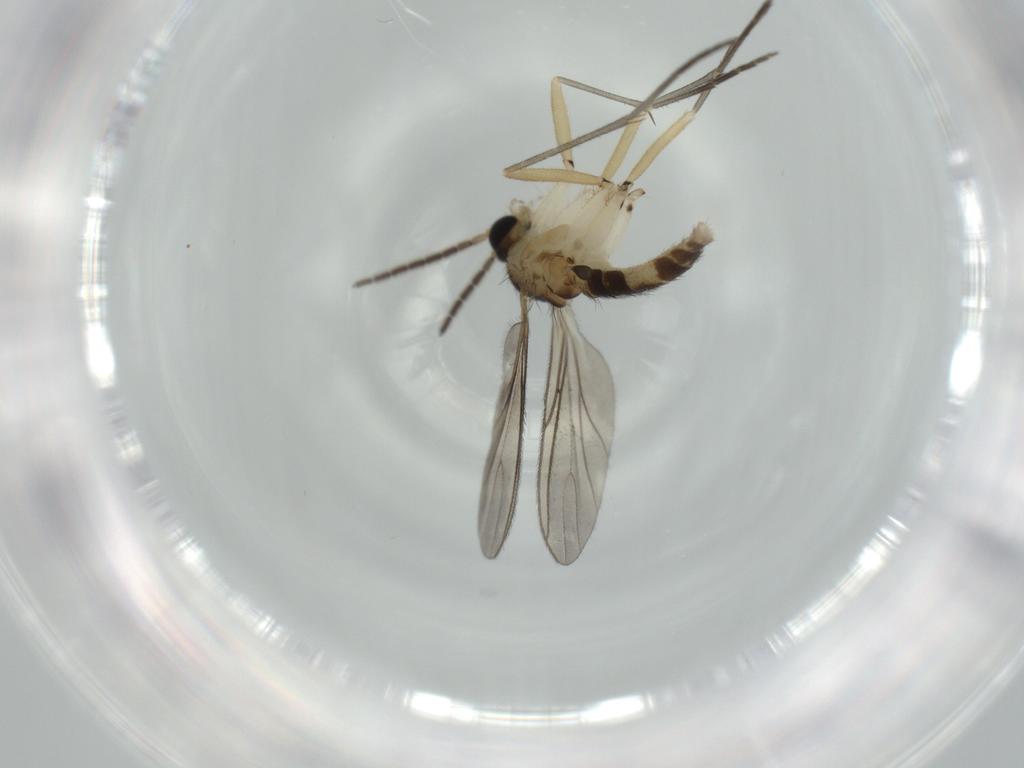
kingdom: Animalia
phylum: Arthropoda
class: Insecta
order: Diptera
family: Sciaridae
